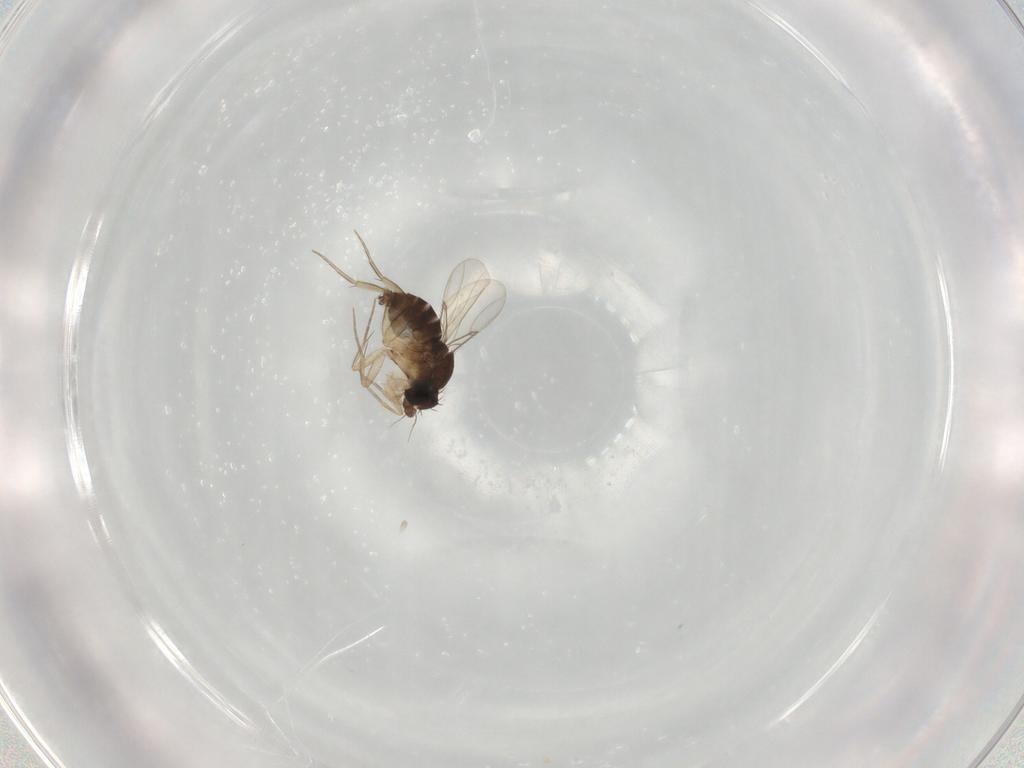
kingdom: Animalia
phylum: Arthropoda
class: Insecta
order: Diptera
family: Phoridae
